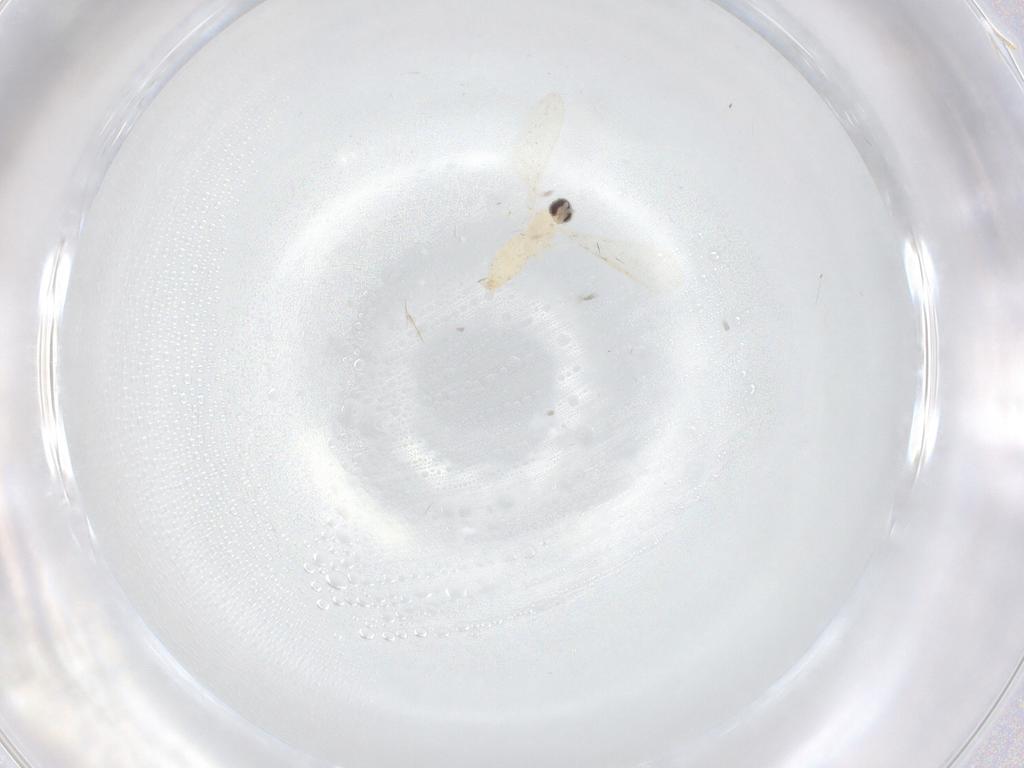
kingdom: Animalia
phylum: Arthropoda
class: Insecta
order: Diptera
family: Cecidomyiidae
